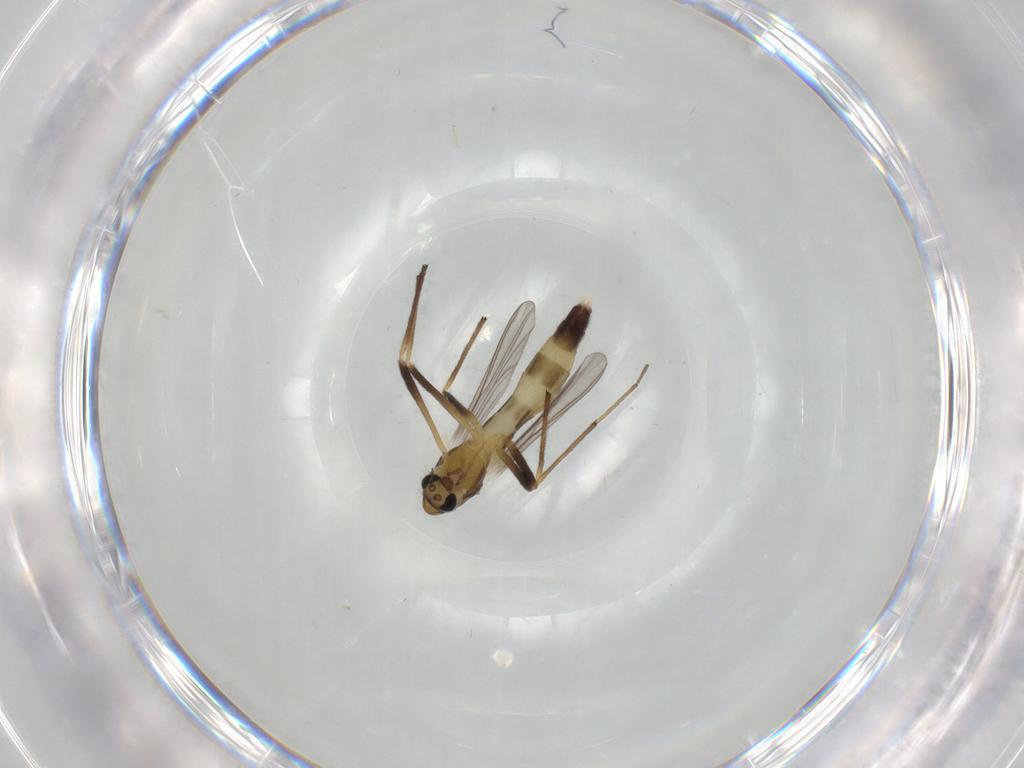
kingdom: Animalia
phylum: Arthropoda
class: Insecta
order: Diptera
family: Chironomidae
